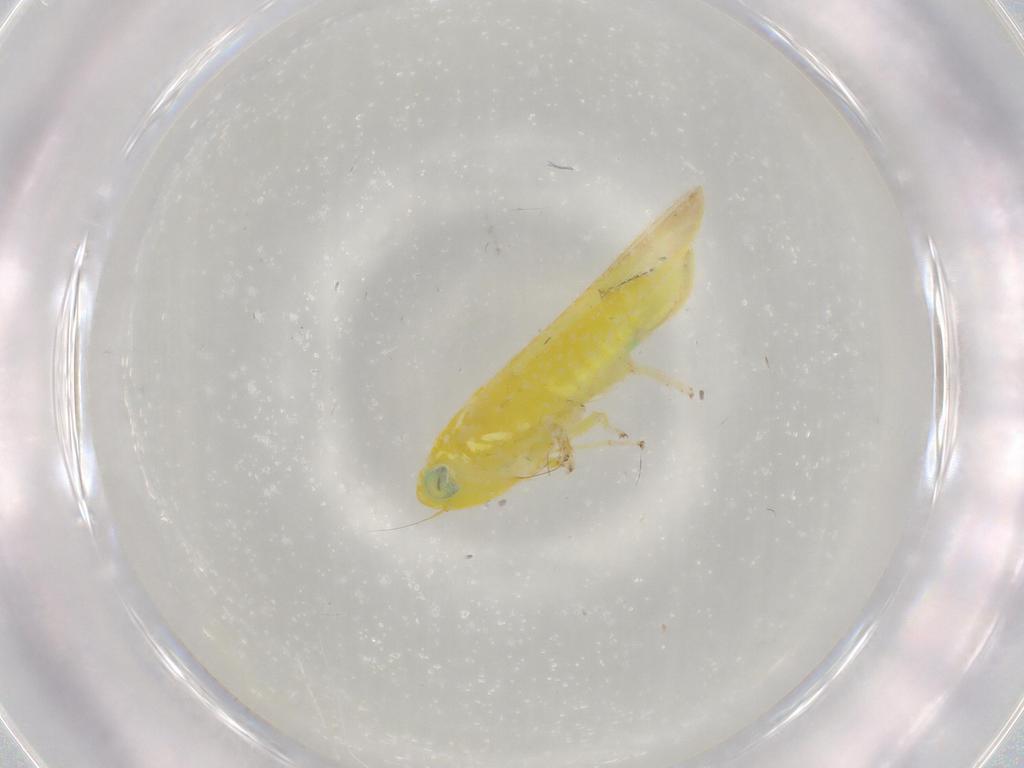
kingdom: Animalia
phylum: Arthropoda
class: Insecta
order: Hemiptera
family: Cicadellidae
